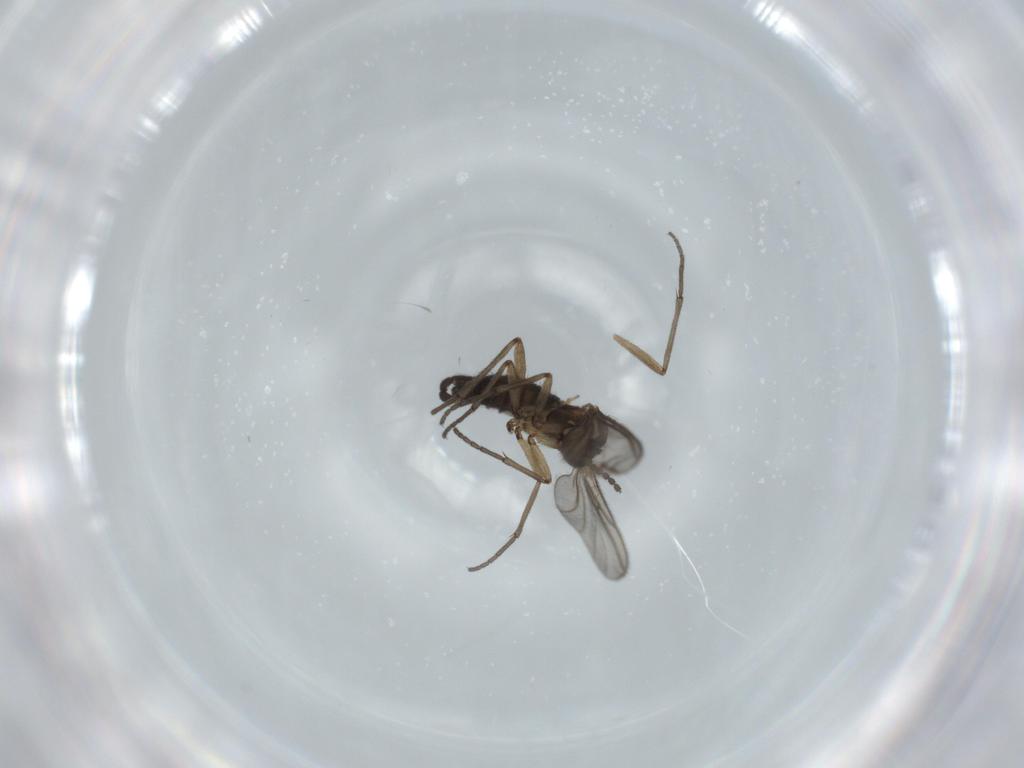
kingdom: Animalia
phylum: Arthropoda
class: Insecta
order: Diptera
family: Sciaridae
